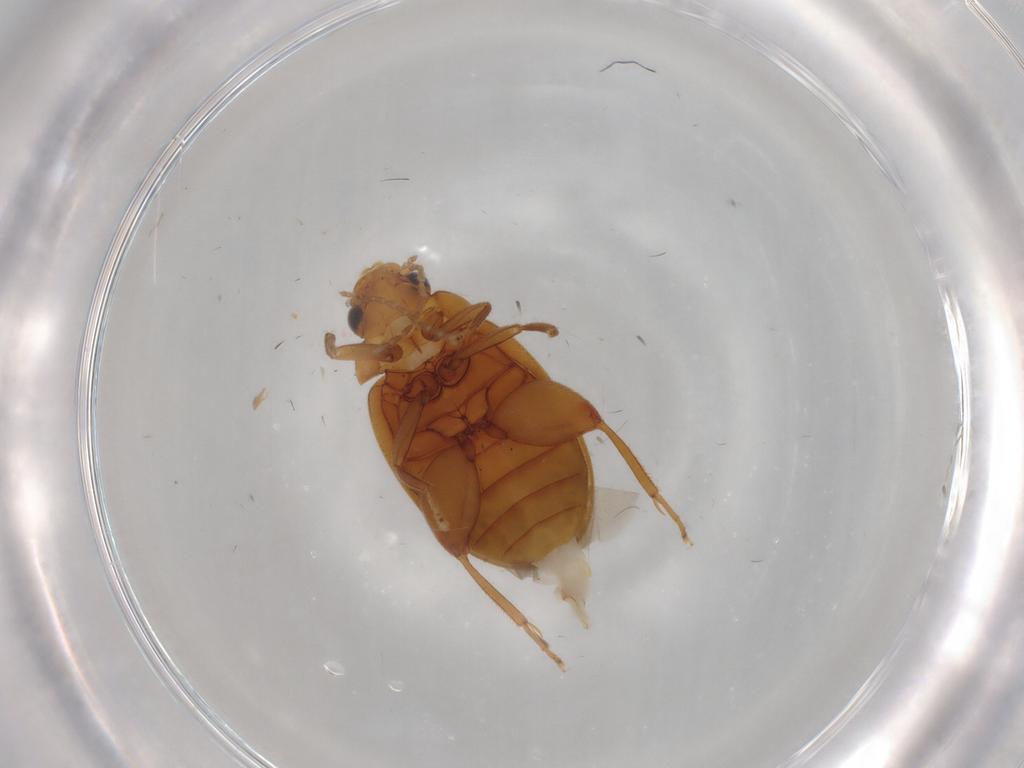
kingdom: Animalia
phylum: Arthropoda
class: Insecta
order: Coleoptera
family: Scirtidae
